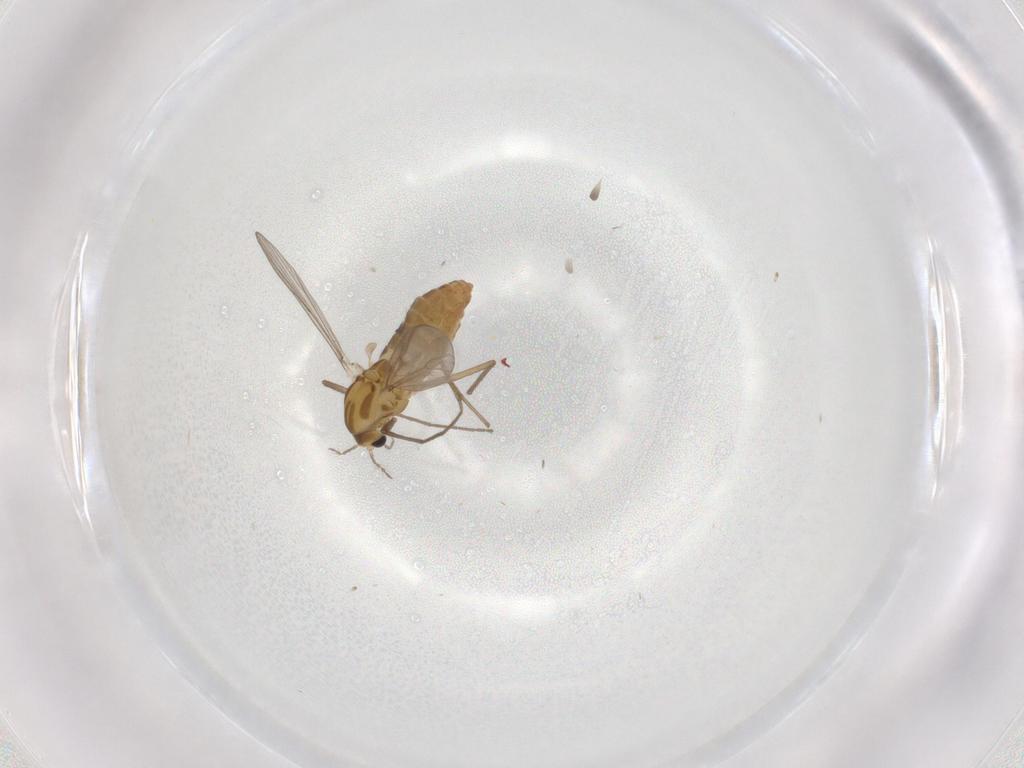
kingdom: Animalia
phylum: Arthropoda
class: Insecta
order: Diptera
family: Chironomidae
